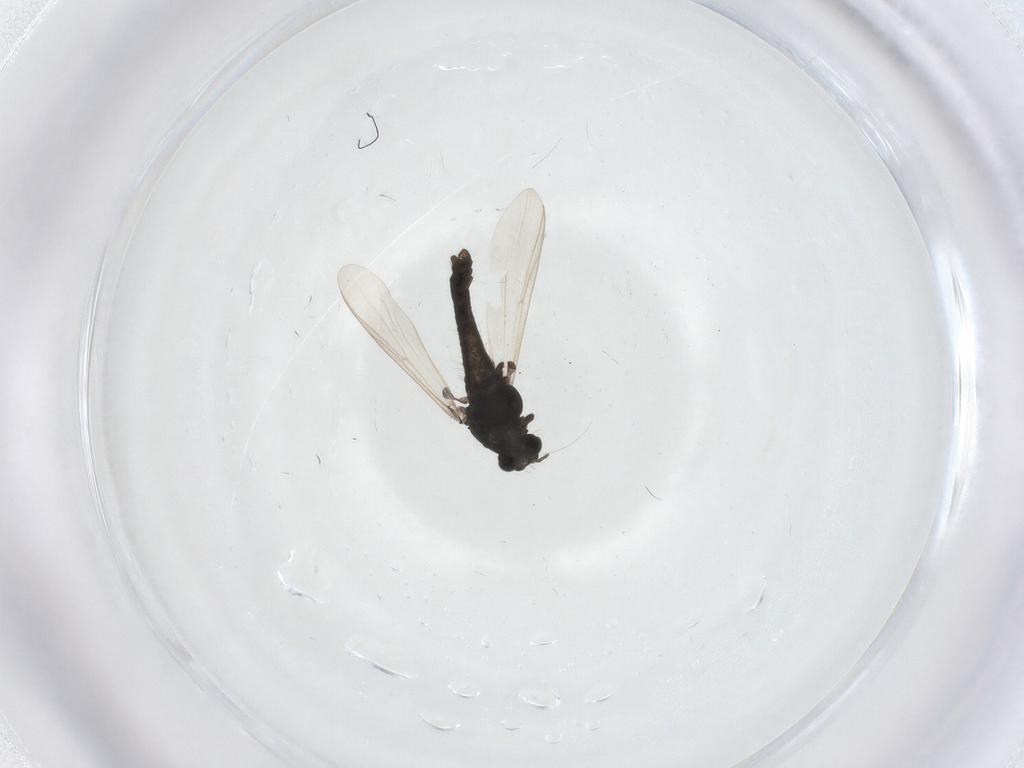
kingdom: Animalia
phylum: Arthropoda
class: Insecta
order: Diptera
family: Chironomidae
